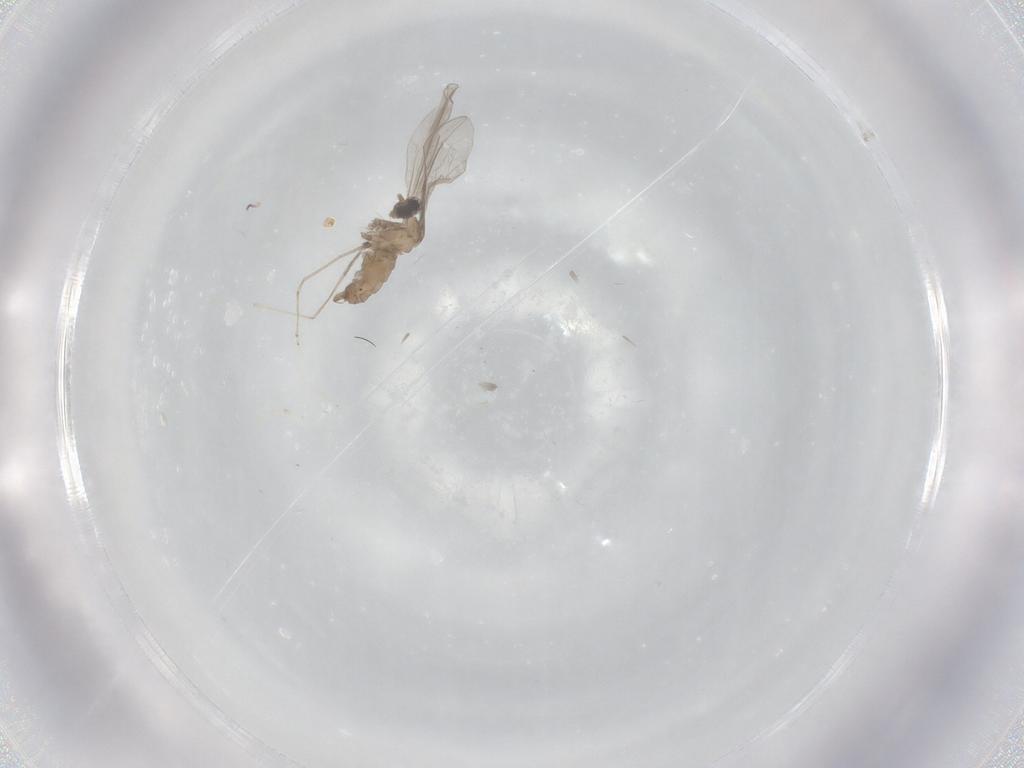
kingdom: Animalia
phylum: Arthropoda
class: Insecta
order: Diptera
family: Cecidomyiidae
